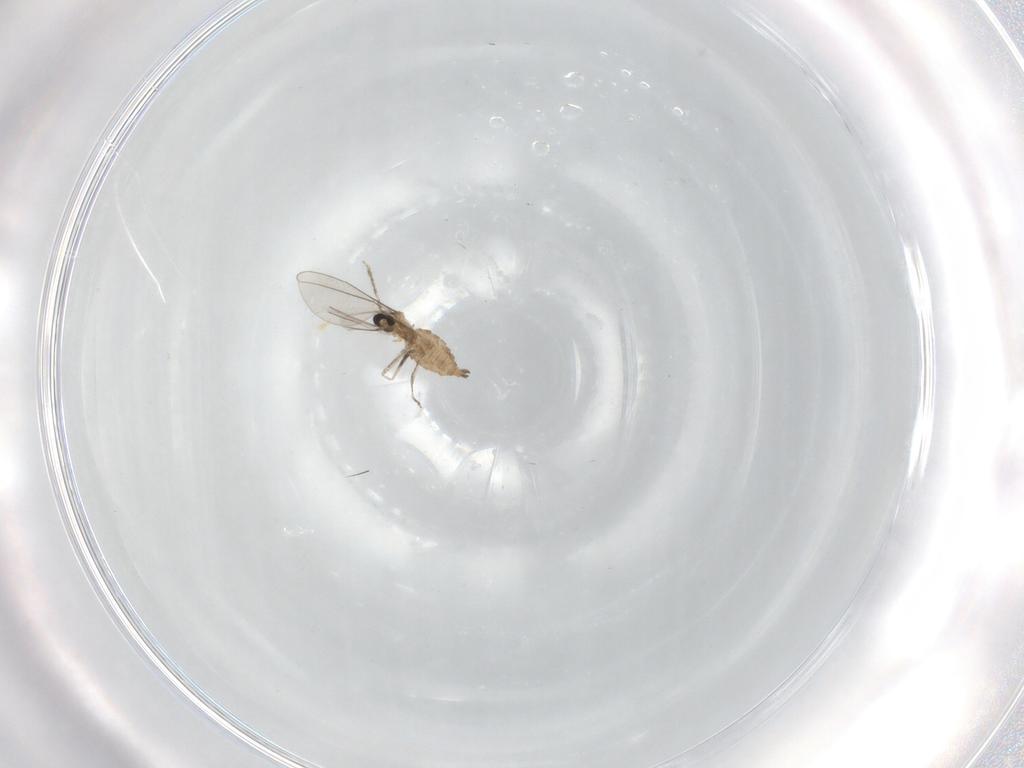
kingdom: Animalia
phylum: Arthropoda
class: Insecta
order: Diptera
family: Cecidomyiidae
